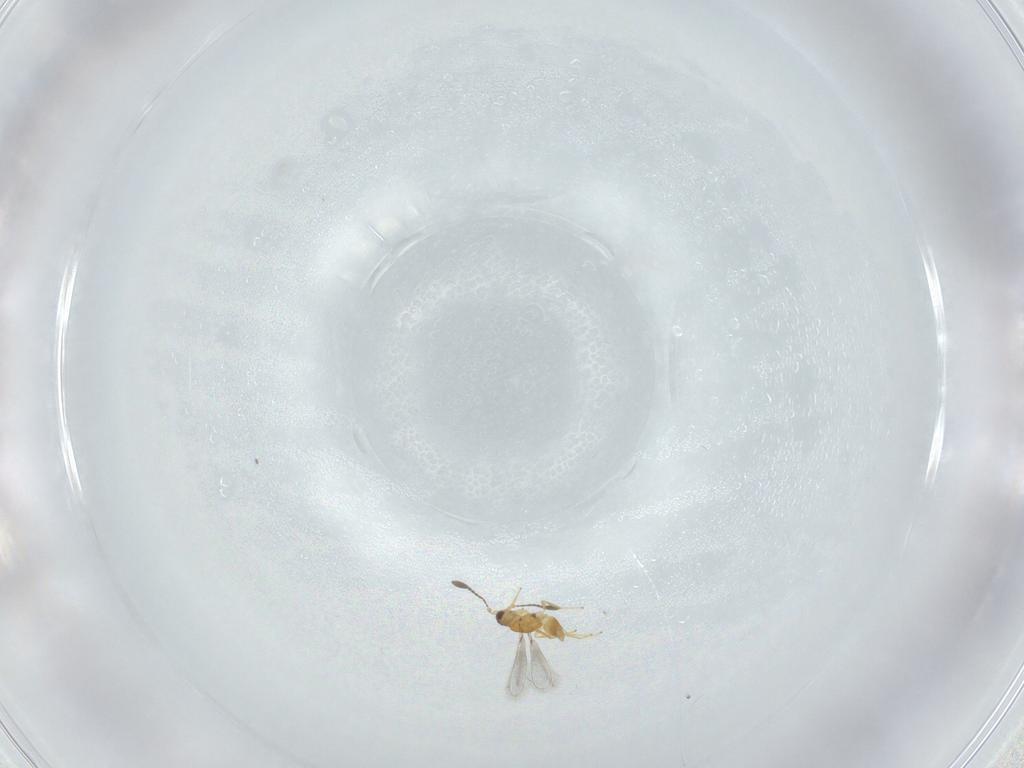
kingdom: Animalia
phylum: Arthropoda
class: Insecta
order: Hymenoptera
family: Mymaridae
